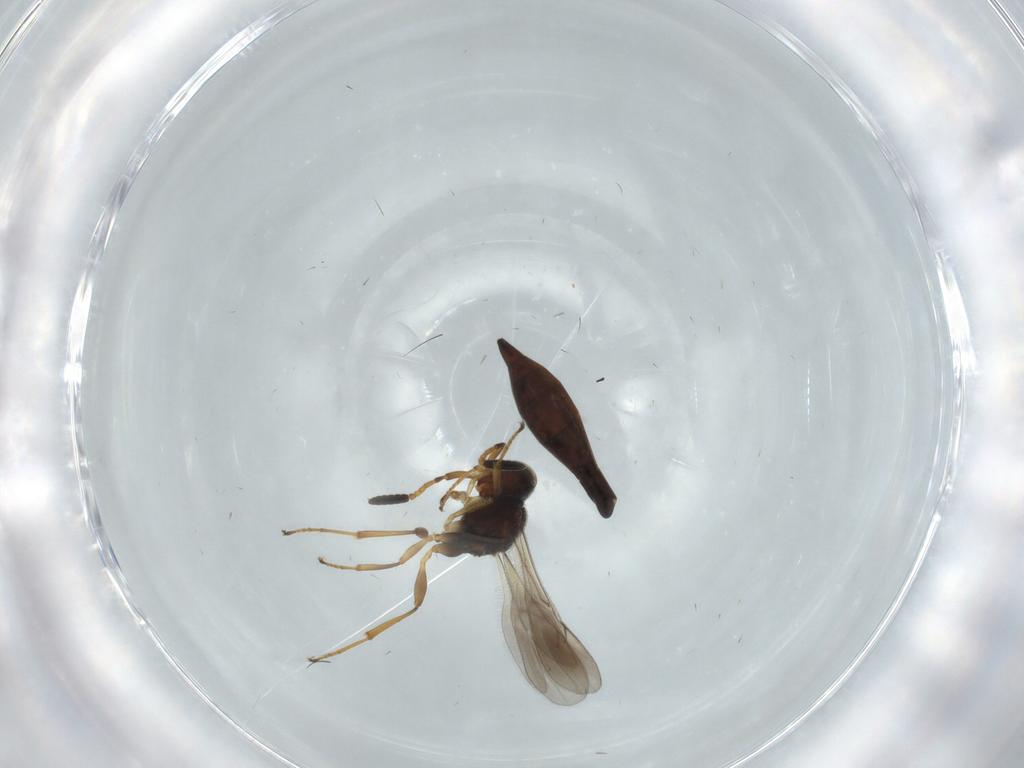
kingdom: Animalia
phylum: Arthropoda
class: Insecta
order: Hymenoptera
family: Scelionidae
